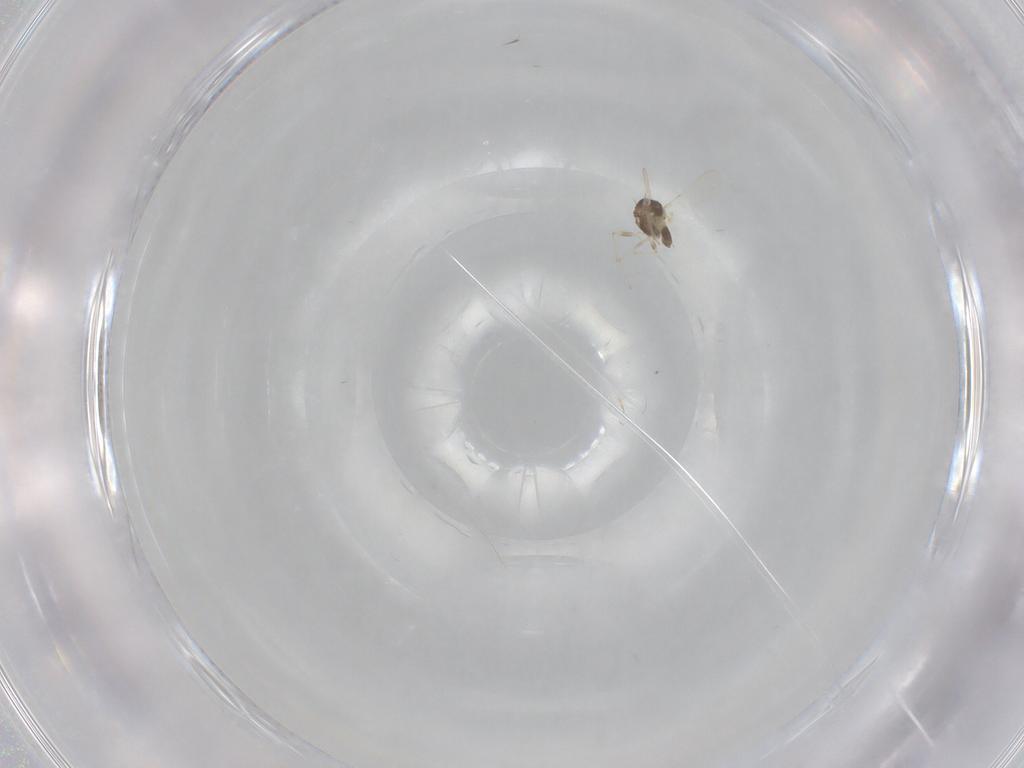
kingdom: Animalia
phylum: Arthropoda
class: Insecta
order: Diptera
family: Chironomidae
